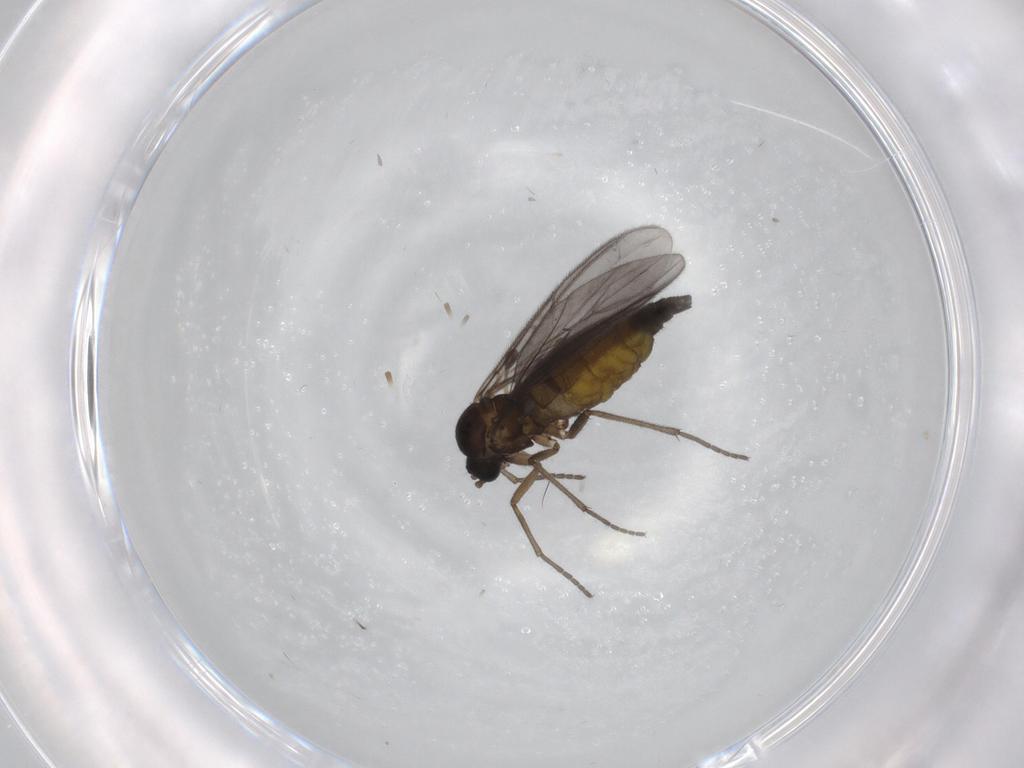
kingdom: Animalia
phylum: Arthropoda
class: Insecta
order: Diptera
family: Sciaridae
